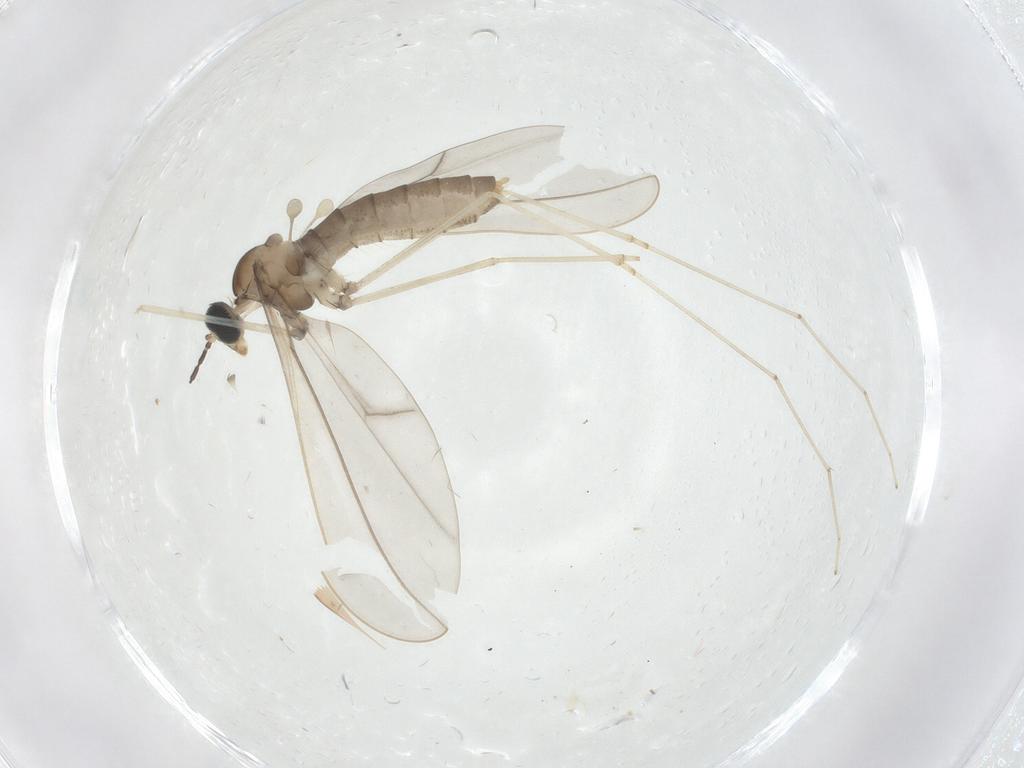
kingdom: Animalia
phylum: Arthropoda
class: Insecta
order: Diptera
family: Cecidomyiidae
